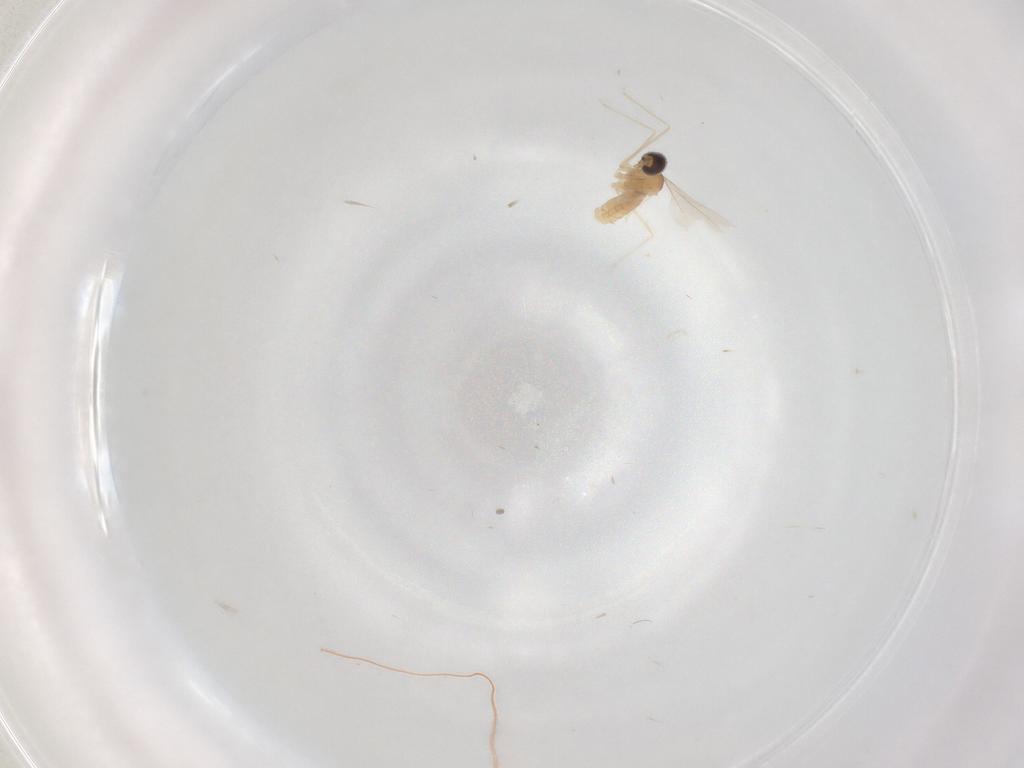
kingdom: Animalia
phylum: Arthropoda
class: Insecta
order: Diptera
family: Cecidomyiidae
